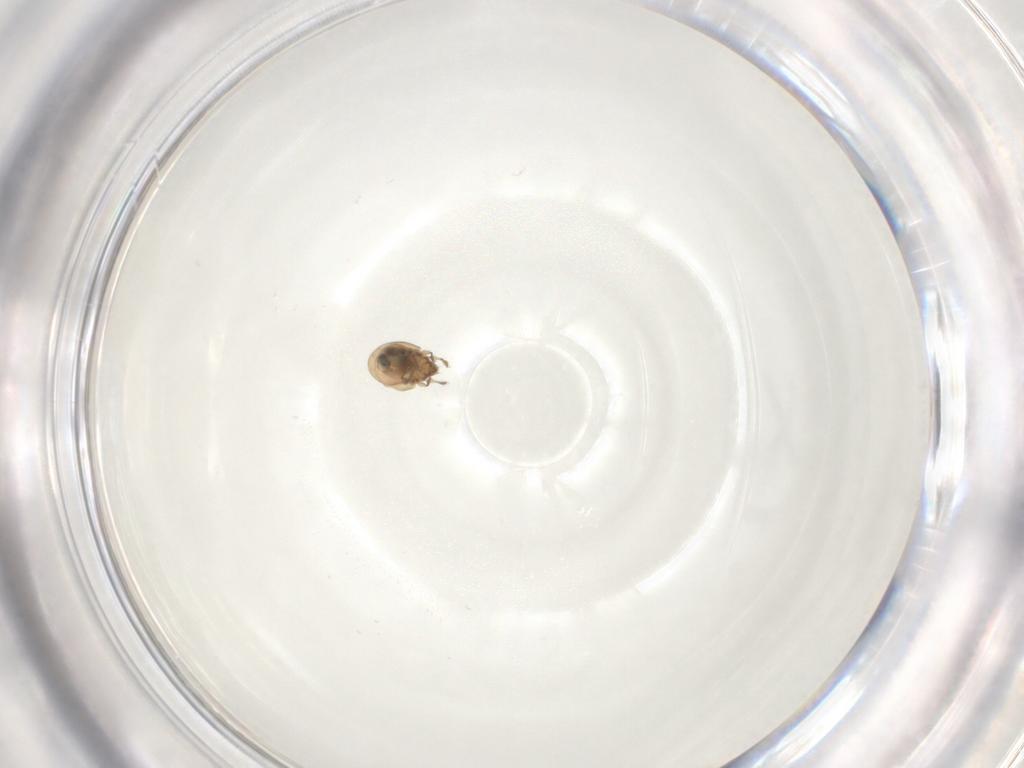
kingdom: Animalia
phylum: Arthropoda
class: Arachnida
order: Sarcoptiformes
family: Mochlozetidae
